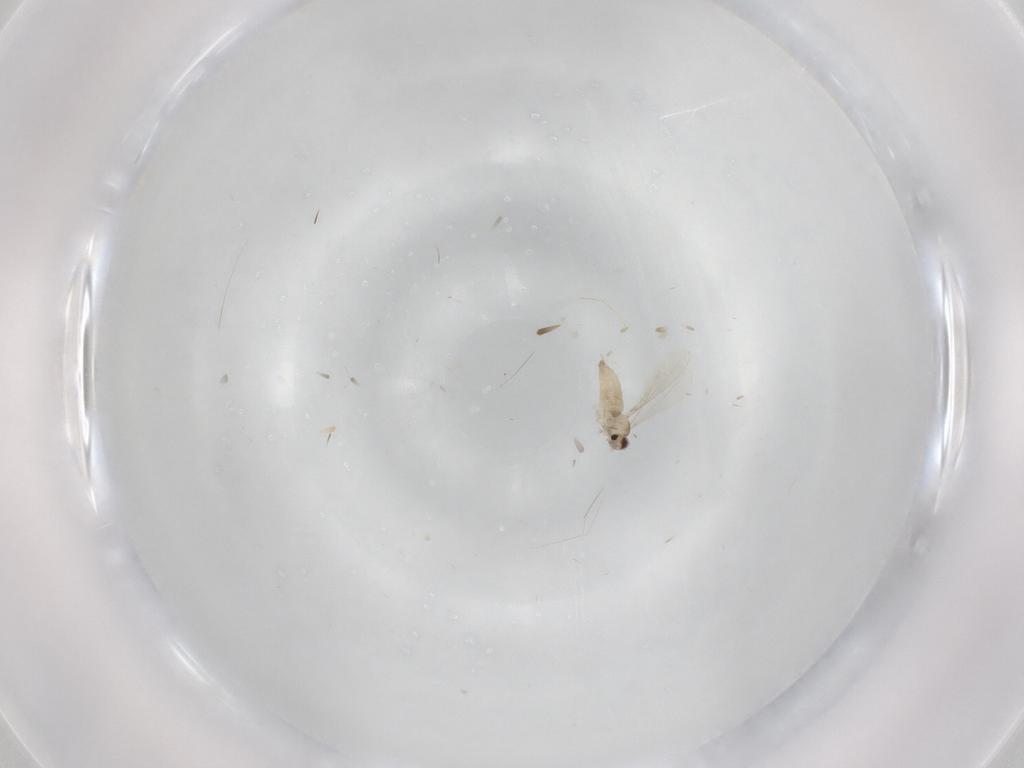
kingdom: Animalia
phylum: Arthropoda
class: Insecta
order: Diptera
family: Cecidomyiidae
